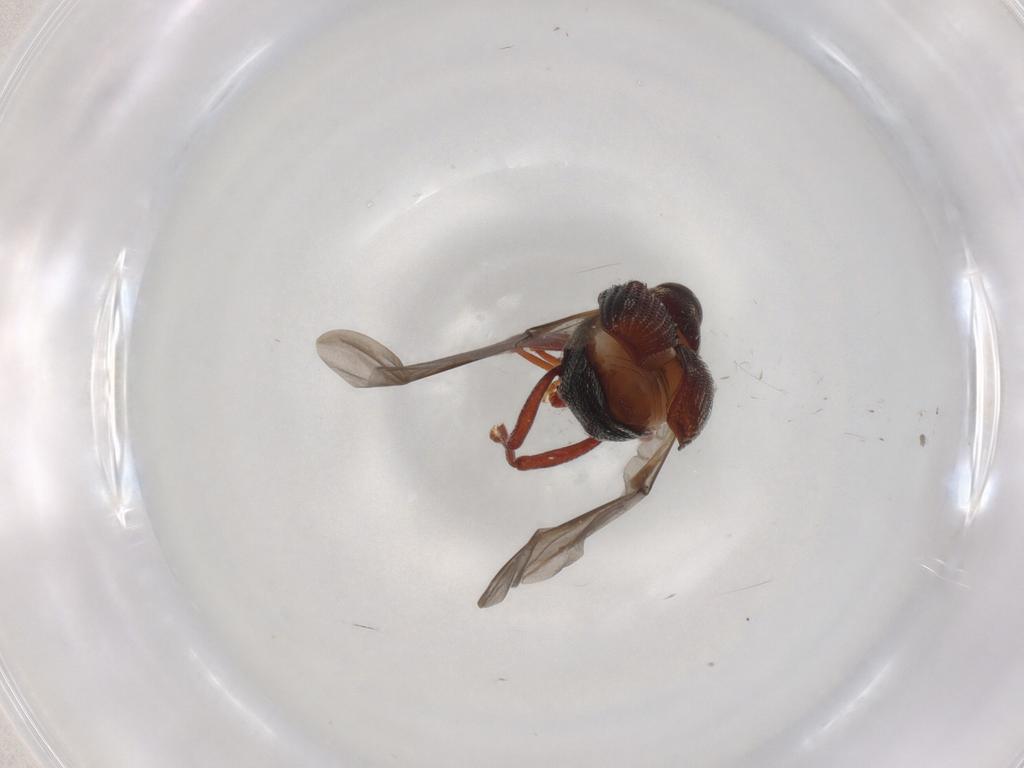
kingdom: Animalia
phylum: Arthropoda
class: Insecta
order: Coleoptera
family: Curculionidae
